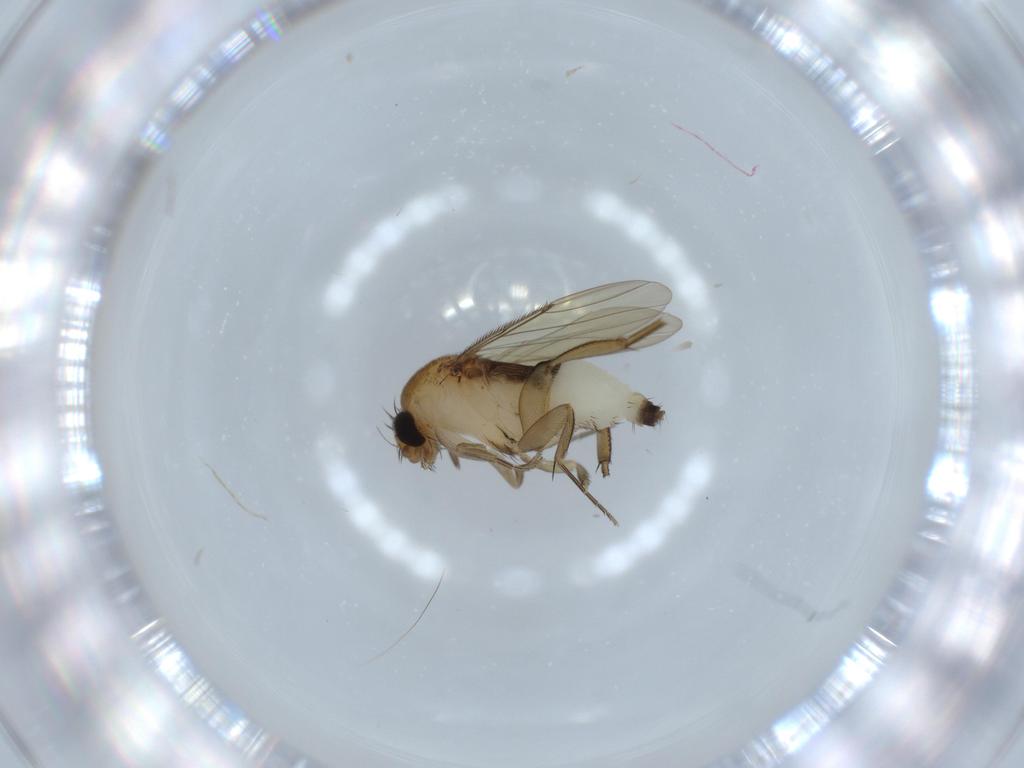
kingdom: Animalia
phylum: Arthropoda
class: Insecta
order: Diptera
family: Phoridae
